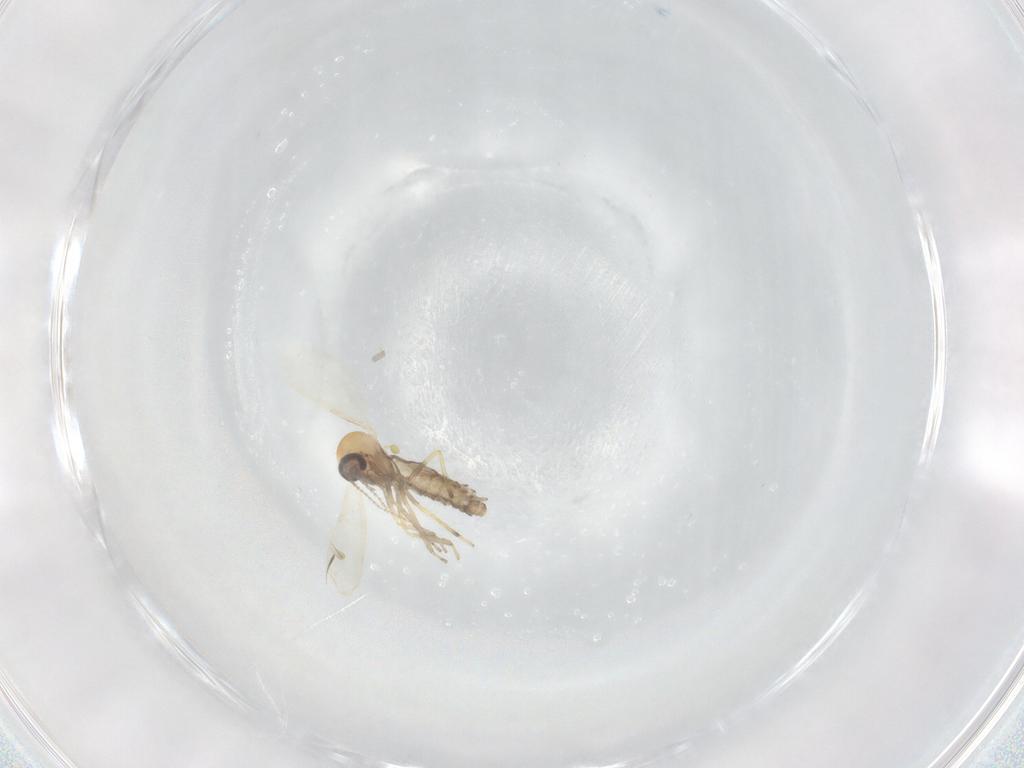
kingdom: Animalia
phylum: Arthropoda
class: Insecta
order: Diptera
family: Ceratopogonidae
